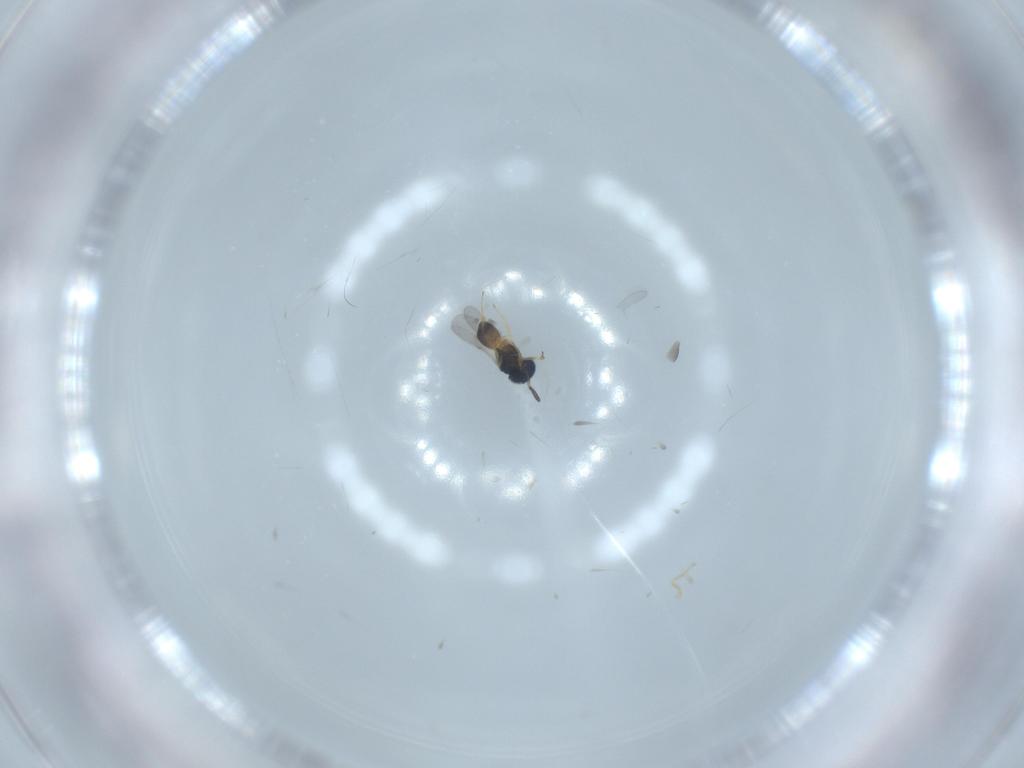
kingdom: Animalia
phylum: Arthropoda
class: Insecta
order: Hymenoptera
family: Scelionidae
